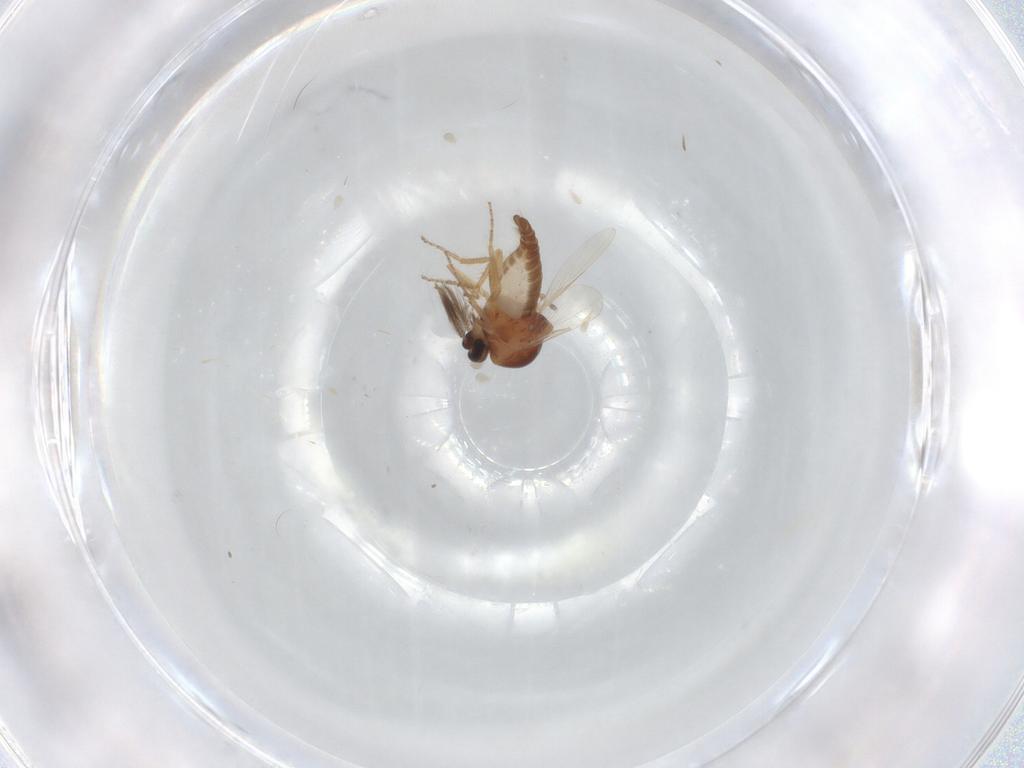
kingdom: Animalia
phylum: Arthropoda
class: Insecta
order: Diptera
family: Ceratopogonidae
